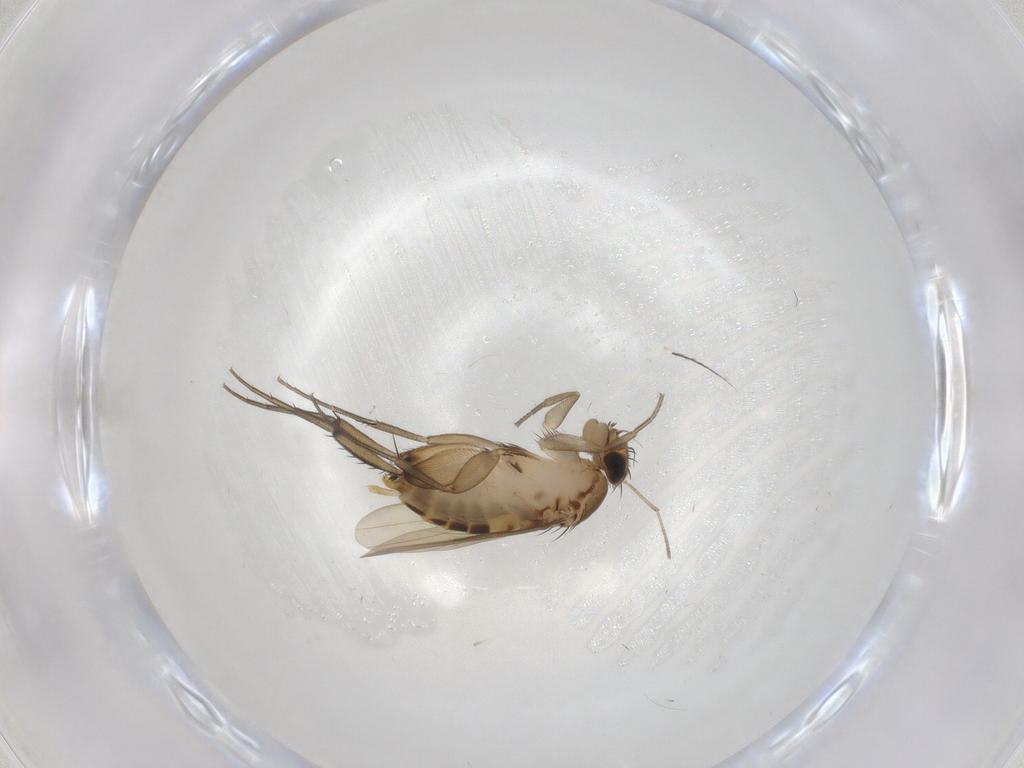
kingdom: Animalia
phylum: Arthropoda
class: Insecta
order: Diptera
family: Phoridae
